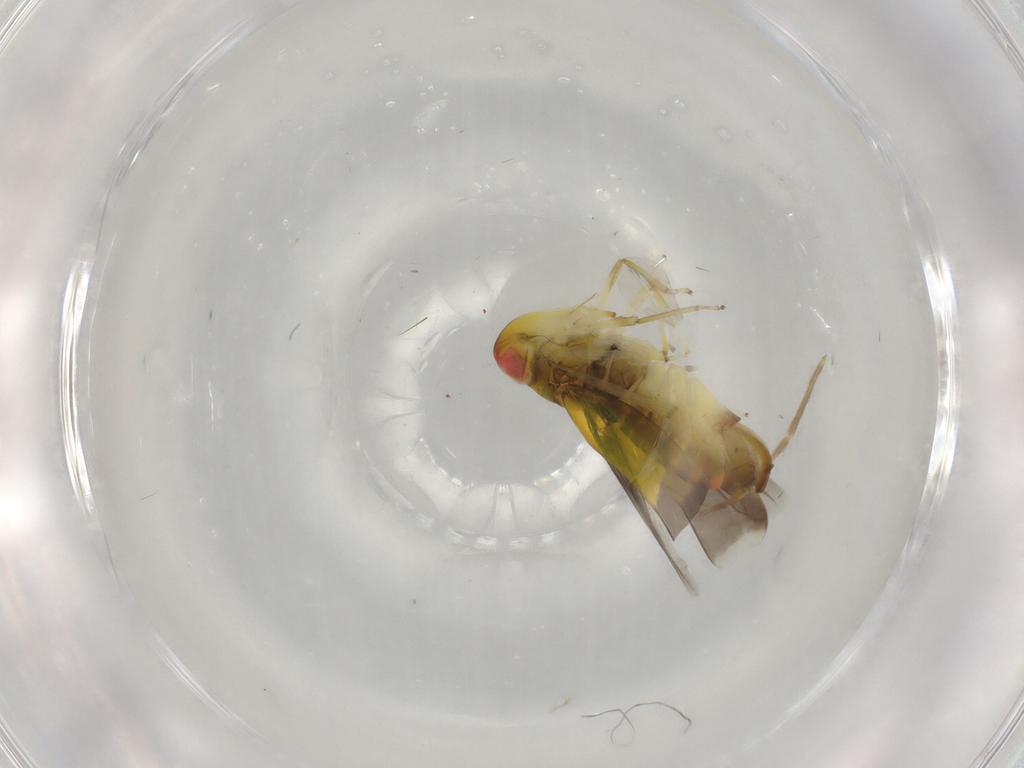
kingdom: Animalia
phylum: Arthropoda
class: Insecta
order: Hemiptera
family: Cicadellidae
